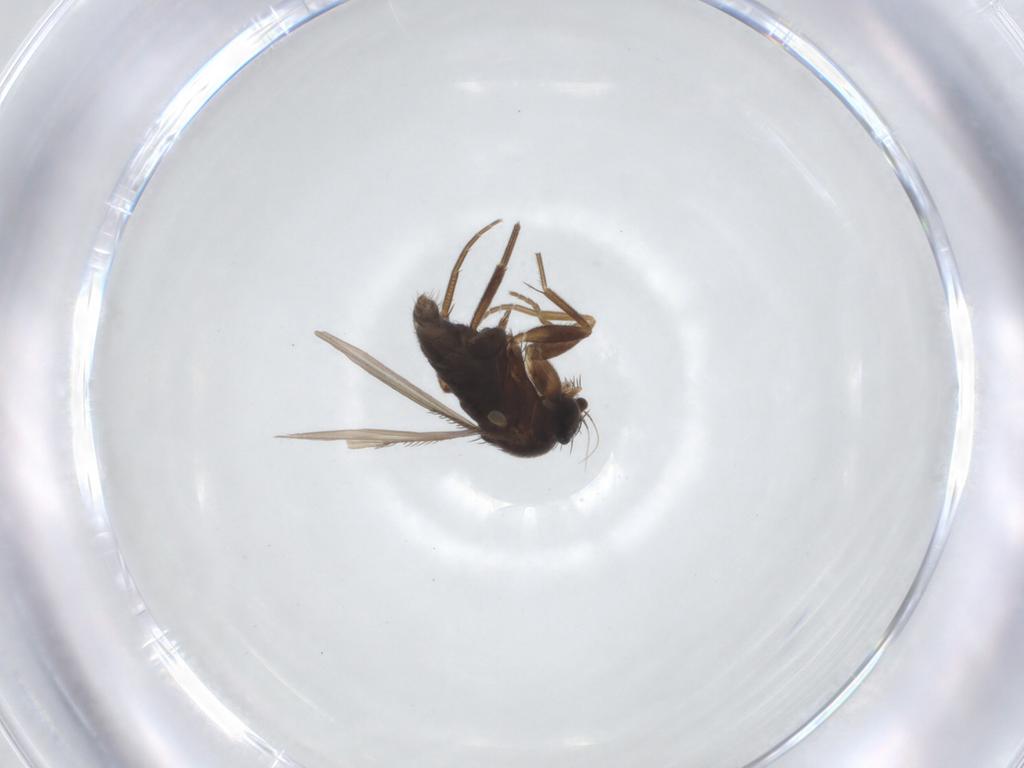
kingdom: Animalia
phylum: Arthropoda
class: Insecta
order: Diptera
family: Phoridae
